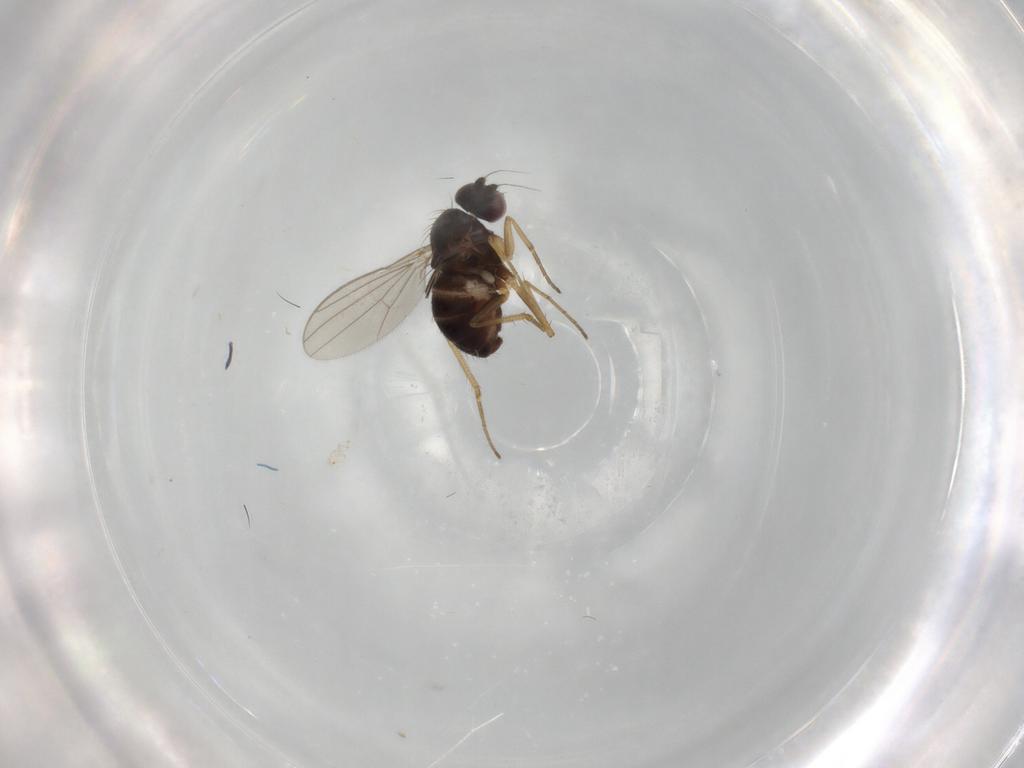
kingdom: Animalia
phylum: Arthropoda
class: Insecta
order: Diptera
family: Dolichopodidae
